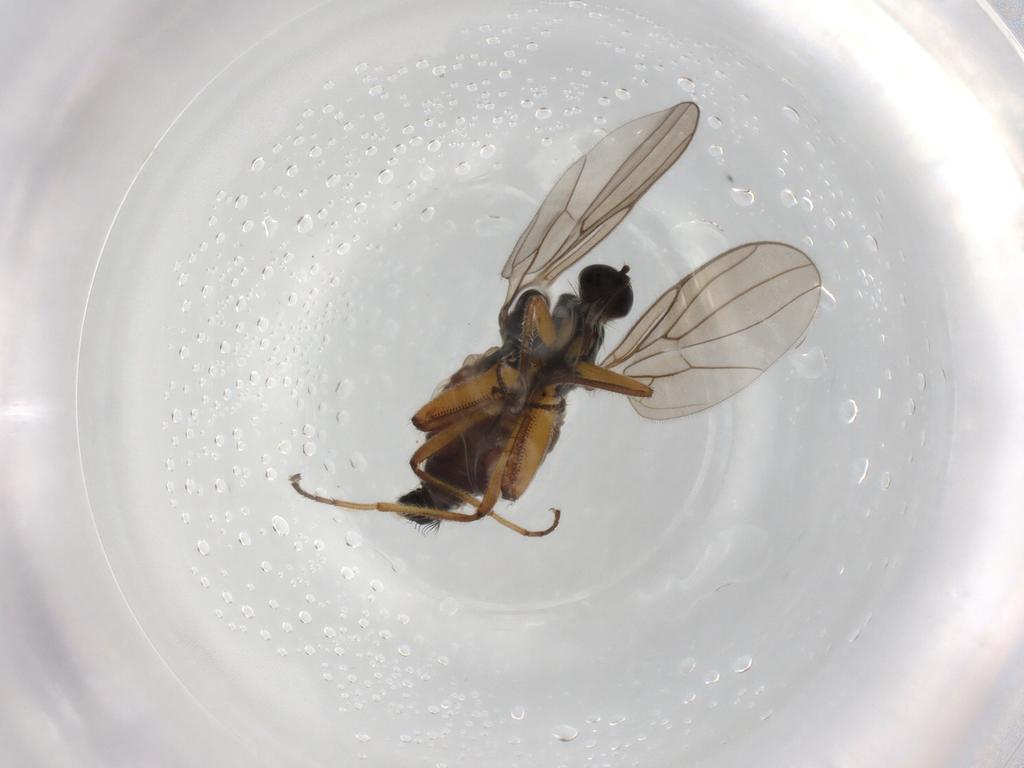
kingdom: Animalia
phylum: Arthropoda
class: Insecta
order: Diptera
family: Hybotidae
